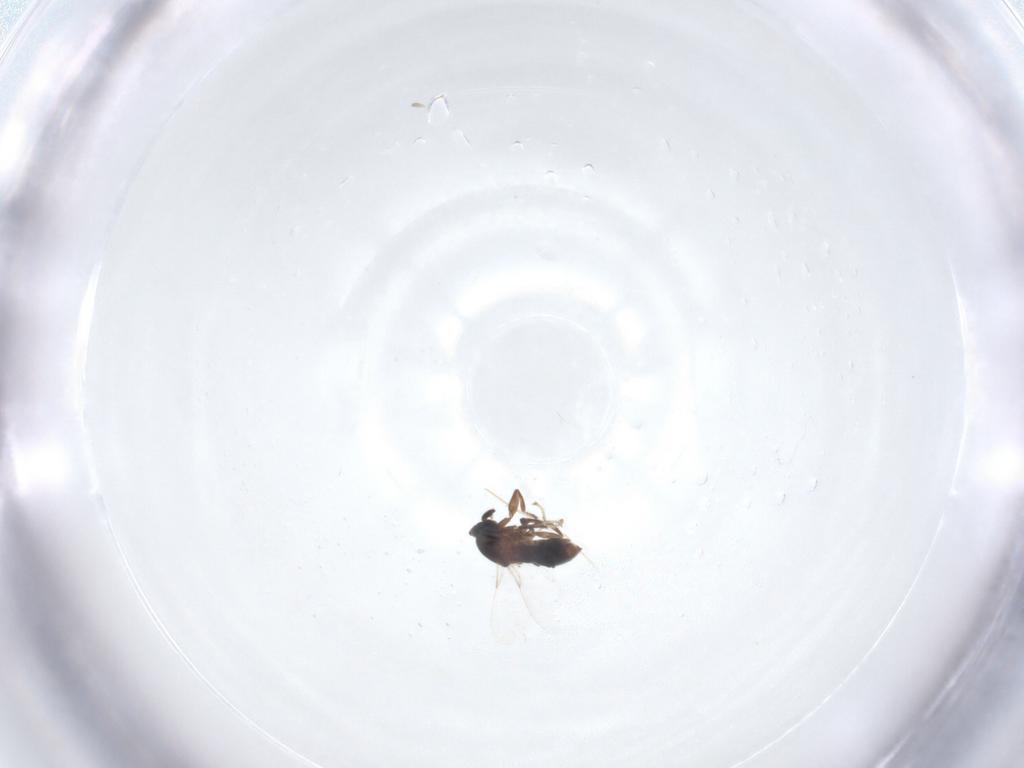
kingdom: Animalia
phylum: Arthropoda
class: Insecta
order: Diptera
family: Scatopsidae
